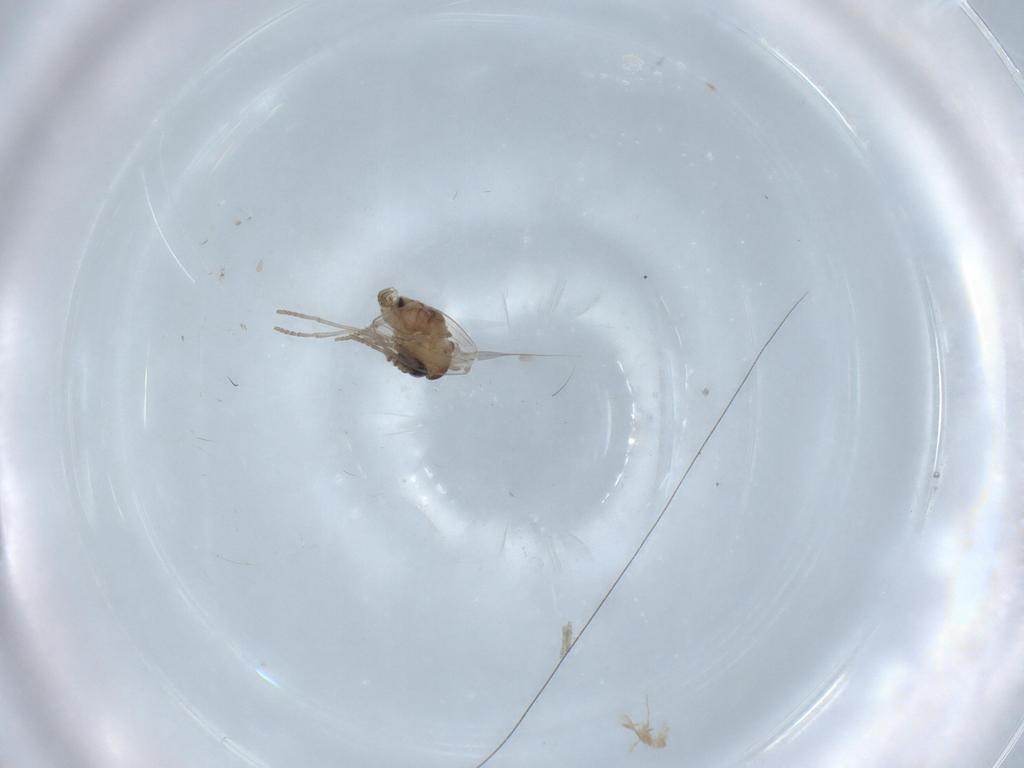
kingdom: Animalia
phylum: Arthropoda
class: Insecta
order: Diptera
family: Psychodidae
